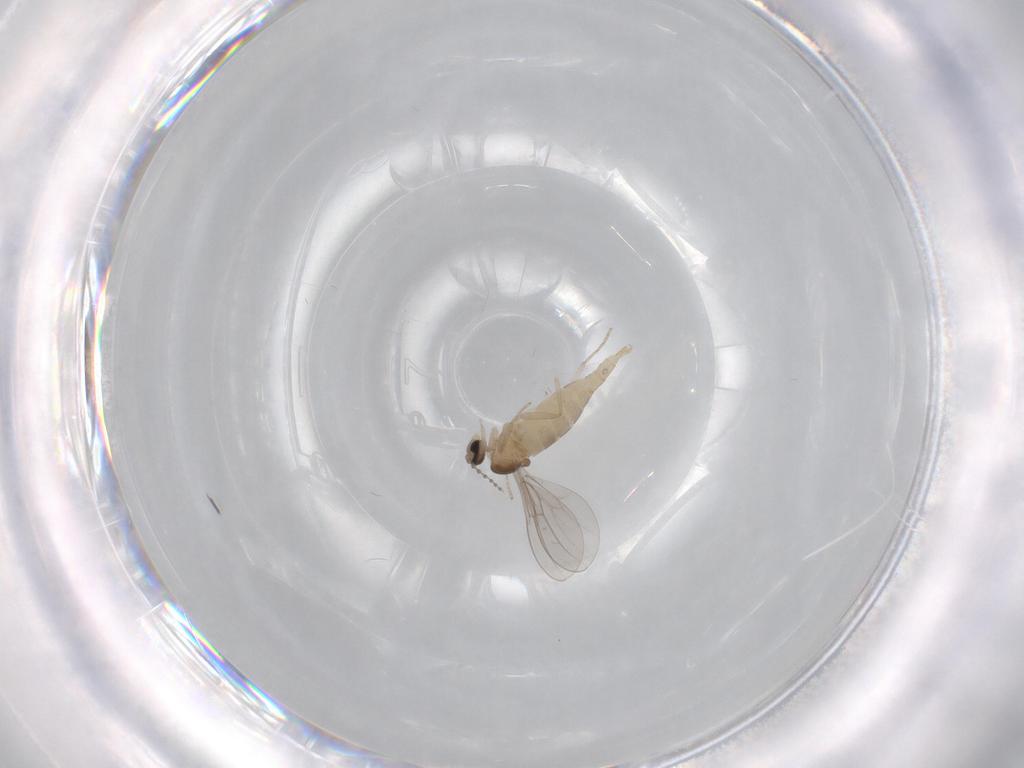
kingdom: Animalia
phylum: Arthropoda
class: Insecta
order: Diptera
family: Cecidomyiidae
